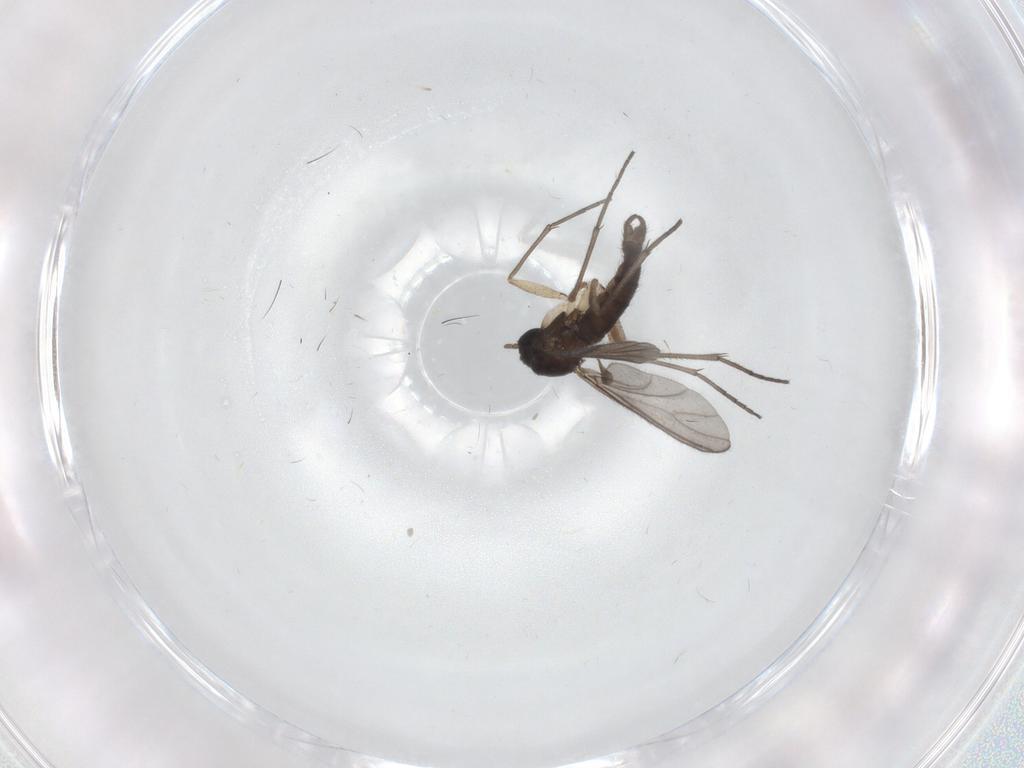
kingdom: Animalia
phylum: Arthropoda
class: Insecta
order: Diptera
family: Sciaridae
